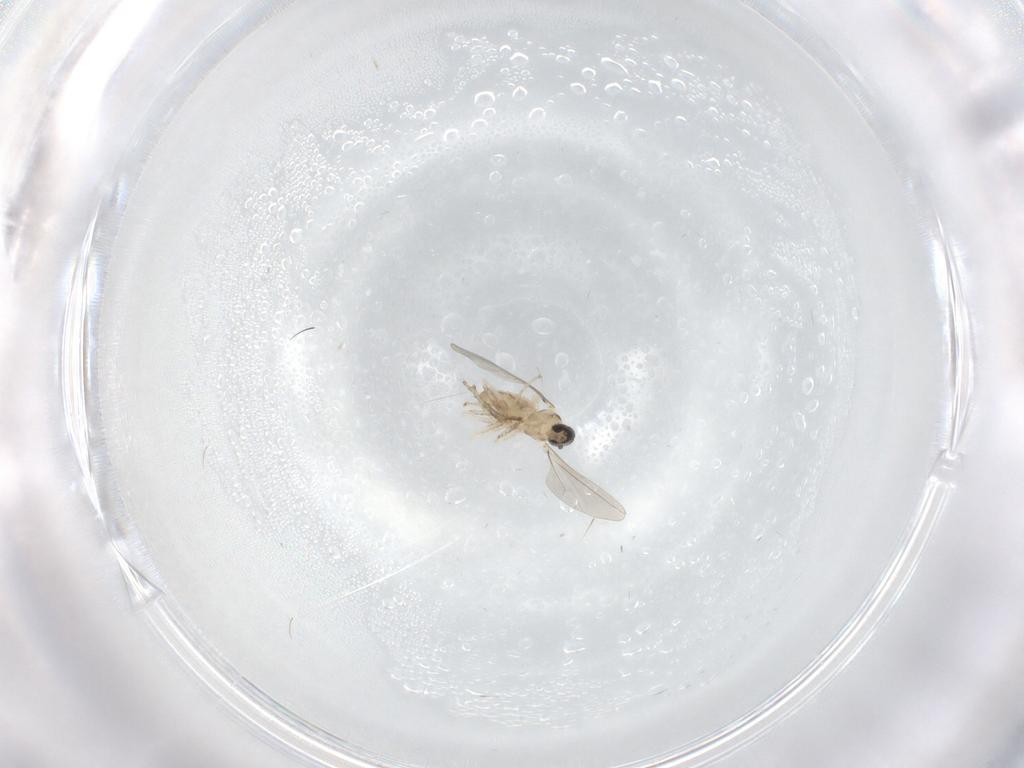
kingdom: Animalia
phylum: Arthropoda
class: Insecta
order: Diptera
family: Ceratopogonidae
